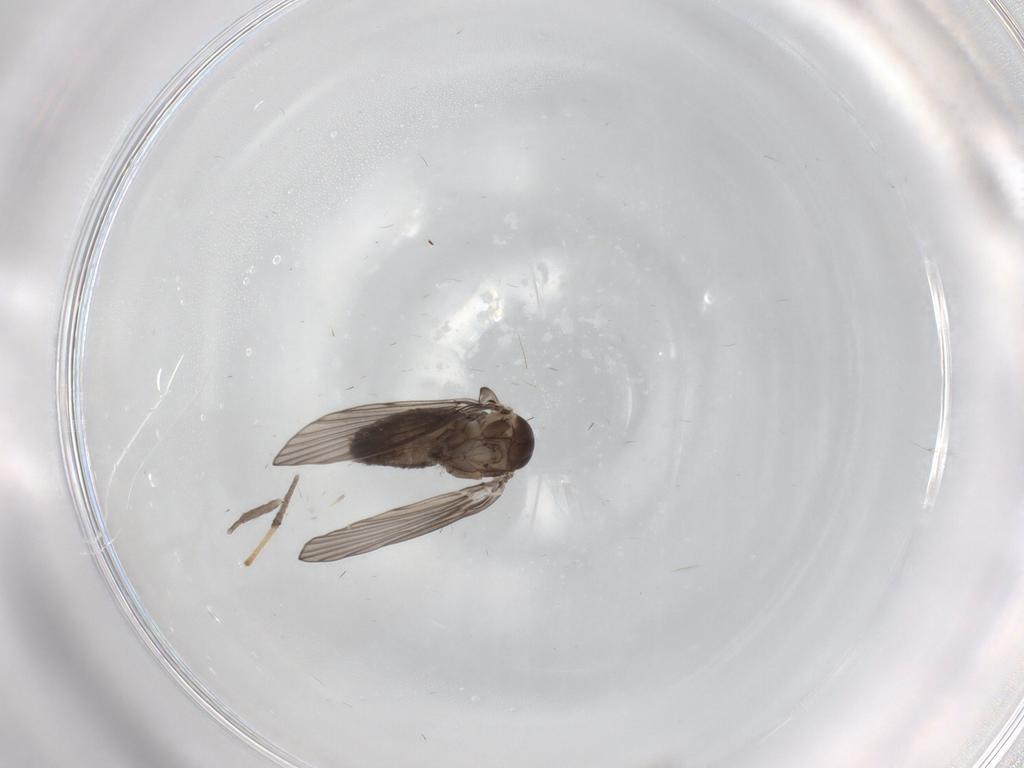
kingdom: Animalia
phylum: Arthropoda
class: Insecta
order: Diptera
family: Psychodidae
